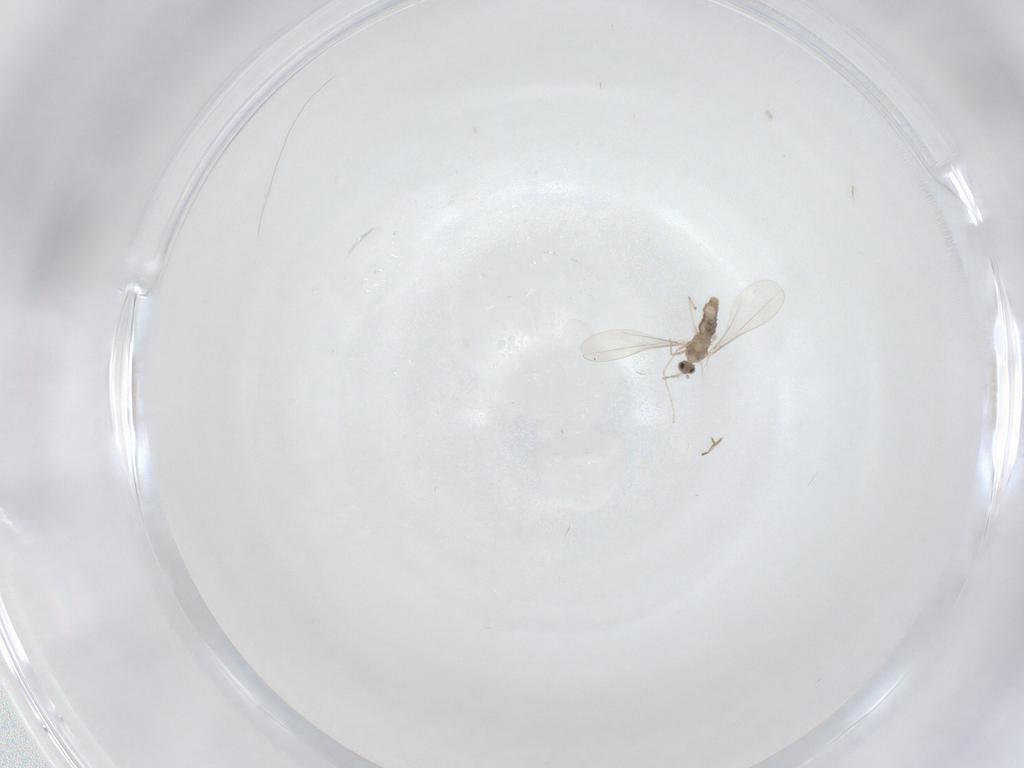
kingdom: Animalia
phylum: Arthropoda
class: Insecta
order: Diptera
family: Cecidomyiidae
